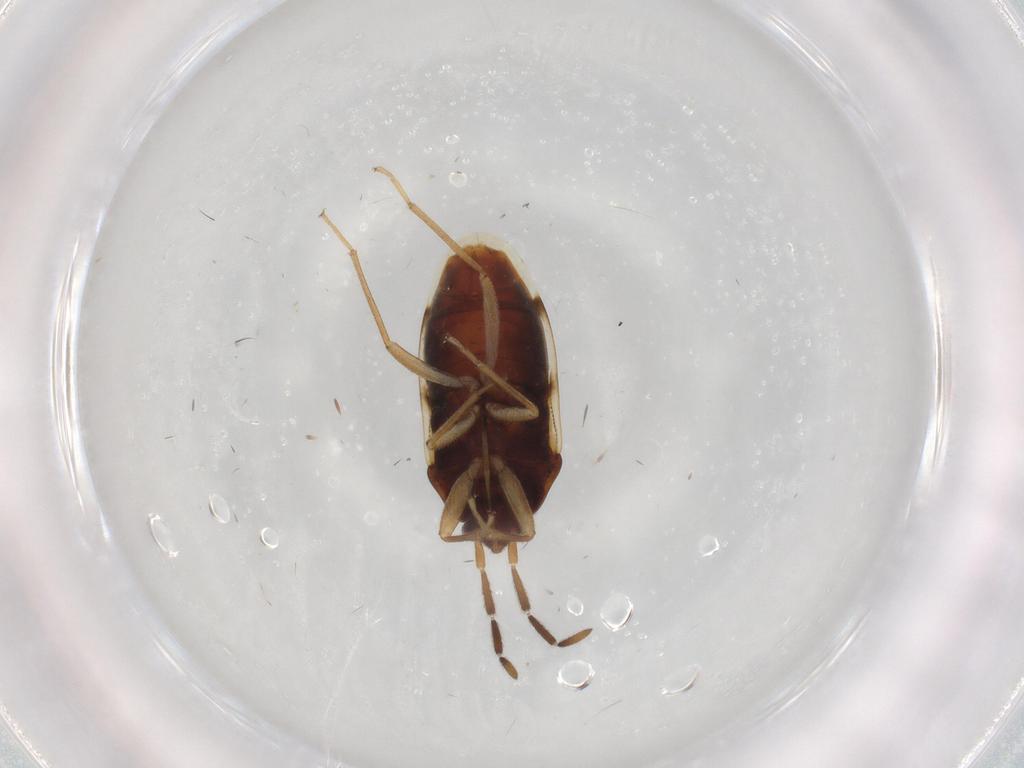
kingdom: Animalia
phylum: Arthropoda
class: Insecta
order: Hemiptera
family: Rhyparochromidae
